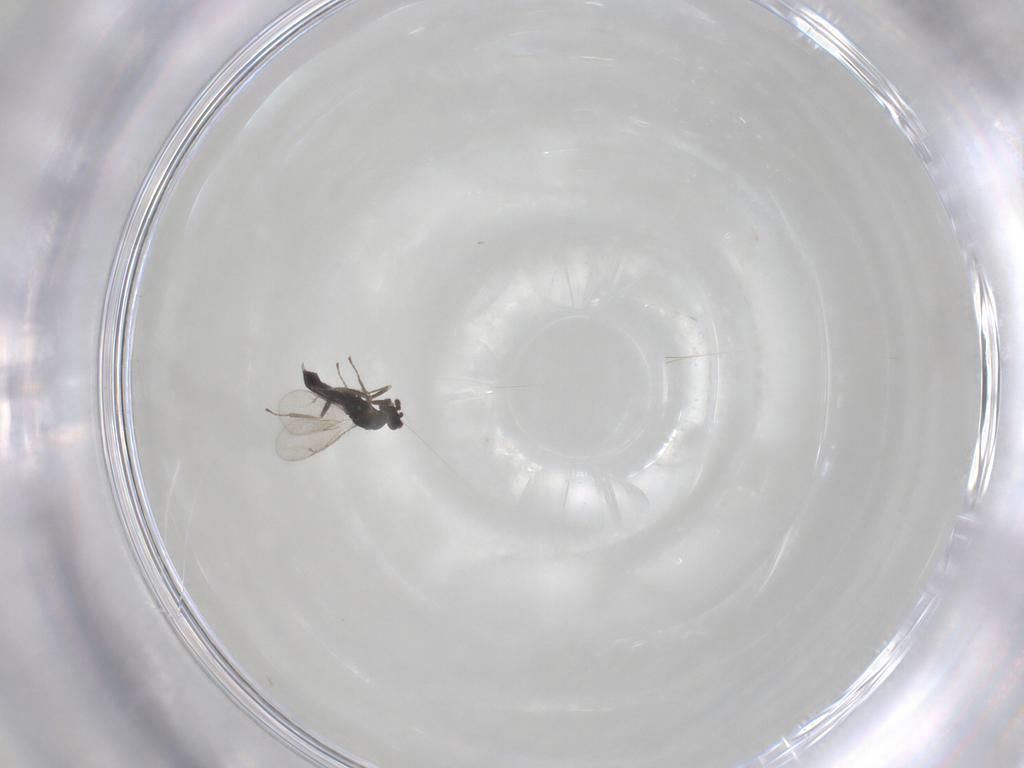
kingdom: Animalia
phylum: Arthropoda
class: Insecta
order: Hymenoptera
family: Eulophidae
